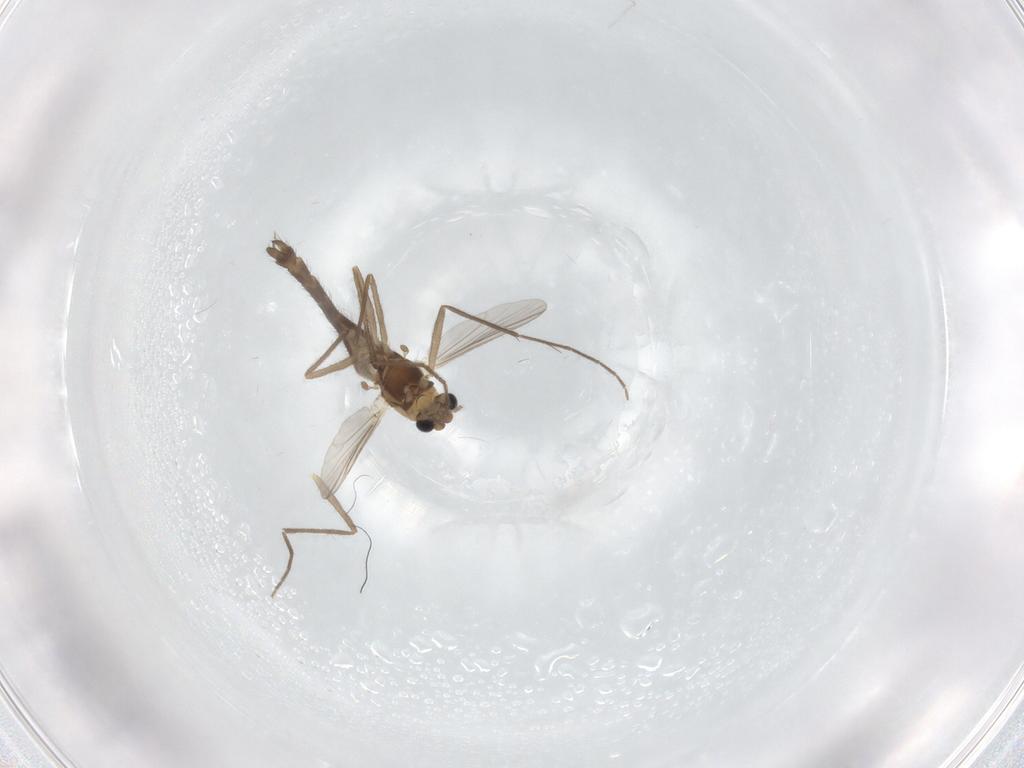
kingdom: Animalia
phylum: Arthropoda
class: Insecta
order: Diptera
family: Chironomidae
